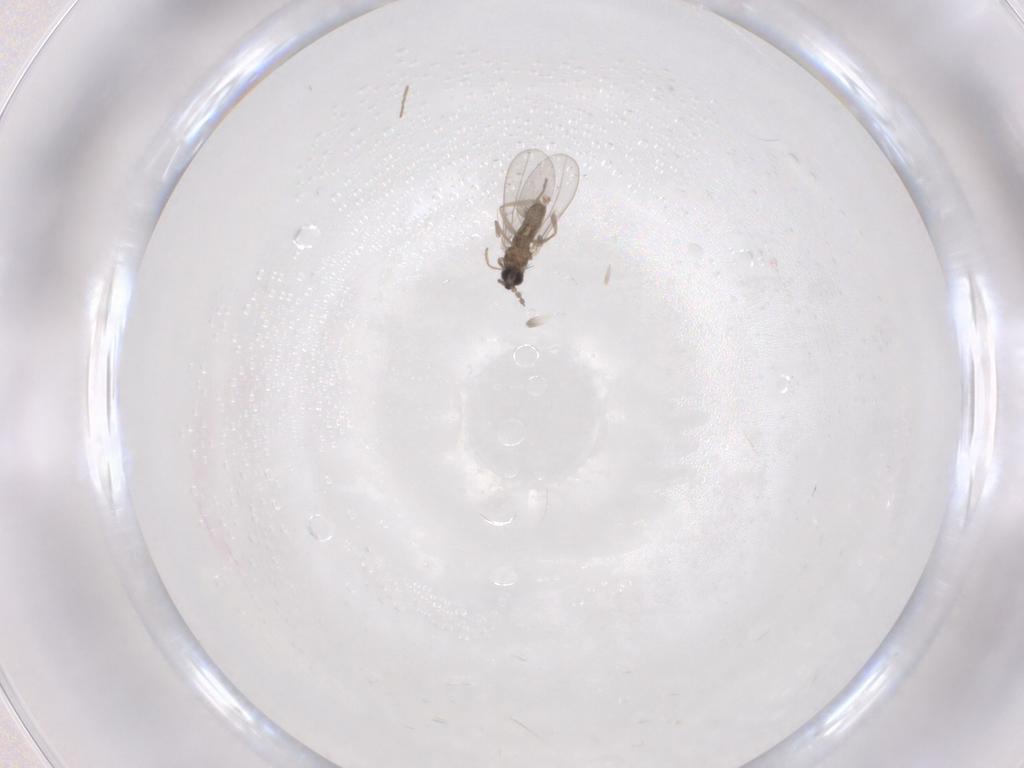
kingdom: Animalia
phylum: Arthropoda
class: Insecta
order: Diptera
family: Cecidomyiidae
